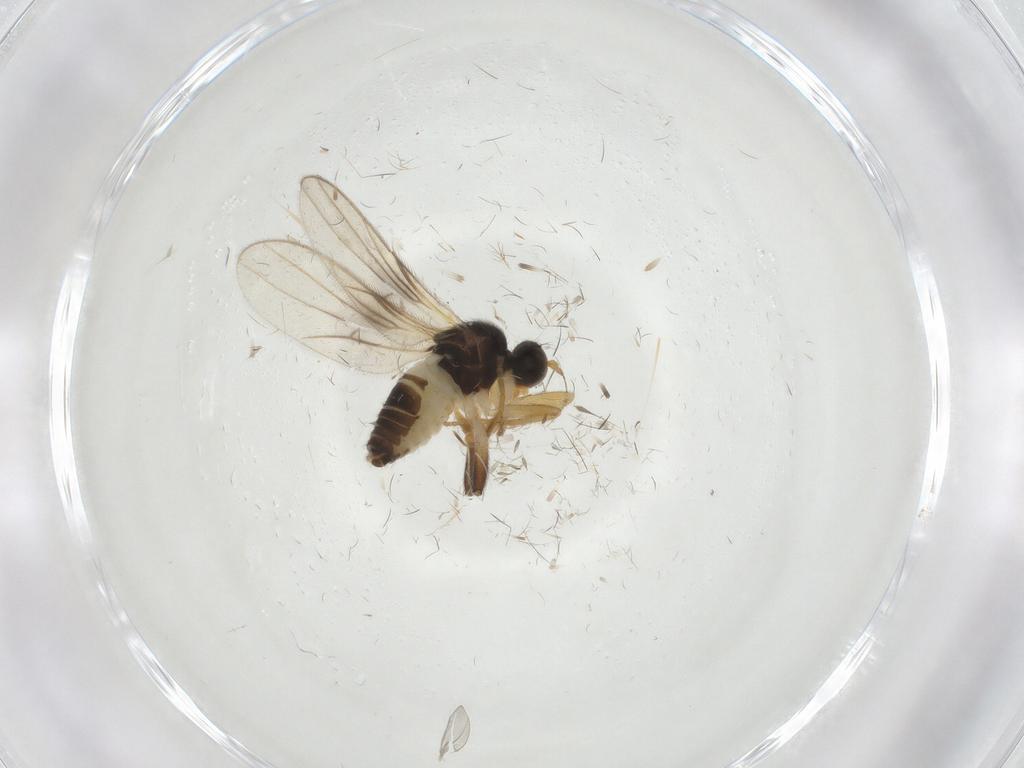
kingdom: Animalia
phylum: Arthropoda
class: Insecta
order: Diptera
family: Hybotidae
